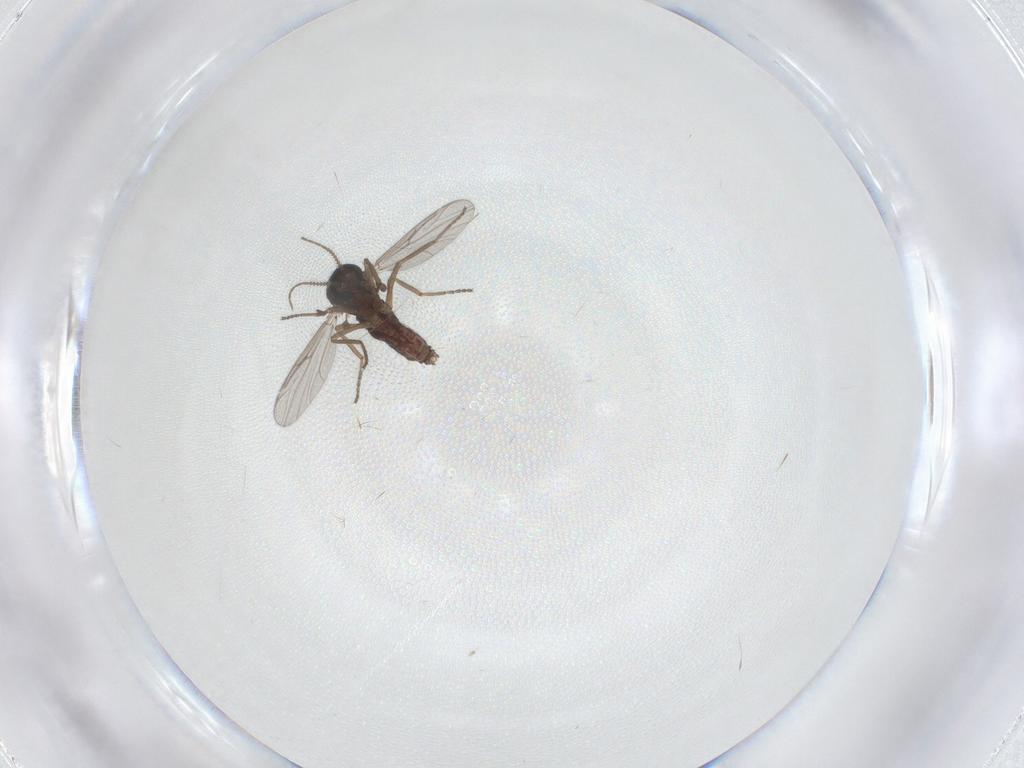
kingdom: Animalia
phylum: Arthropoda
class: Insecta
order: Diptera
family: Ceratopogonidae
